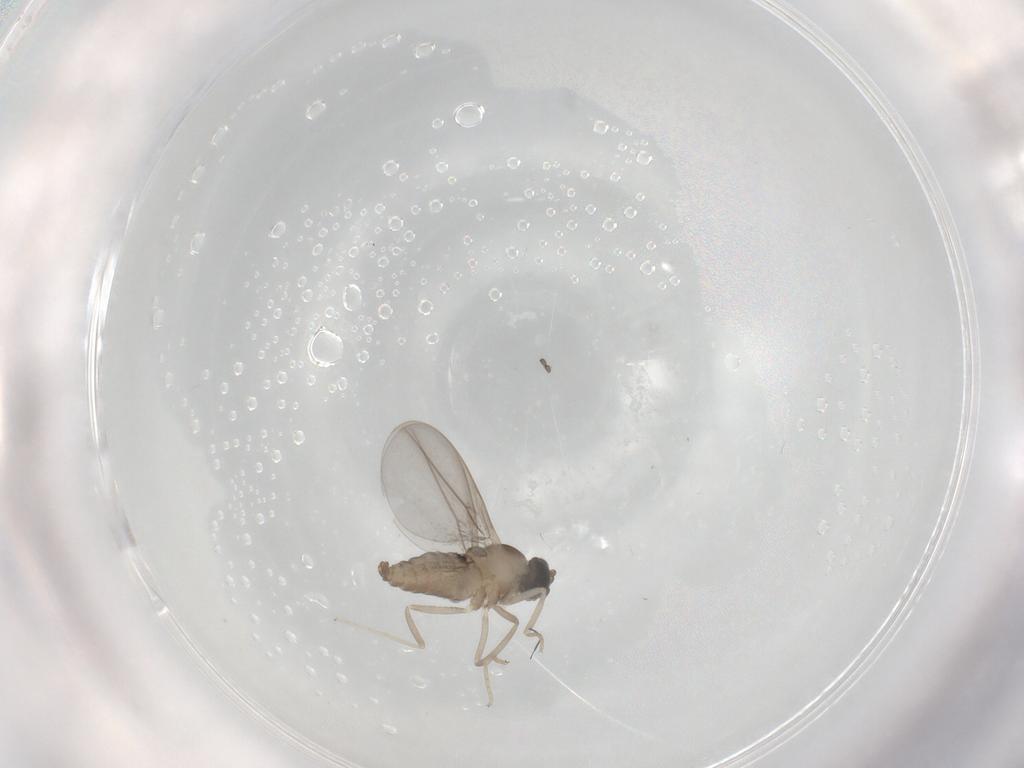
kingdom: Animalia
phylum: Arthropoda
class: Insecta
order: Diptera
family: Cecidomyiidae
